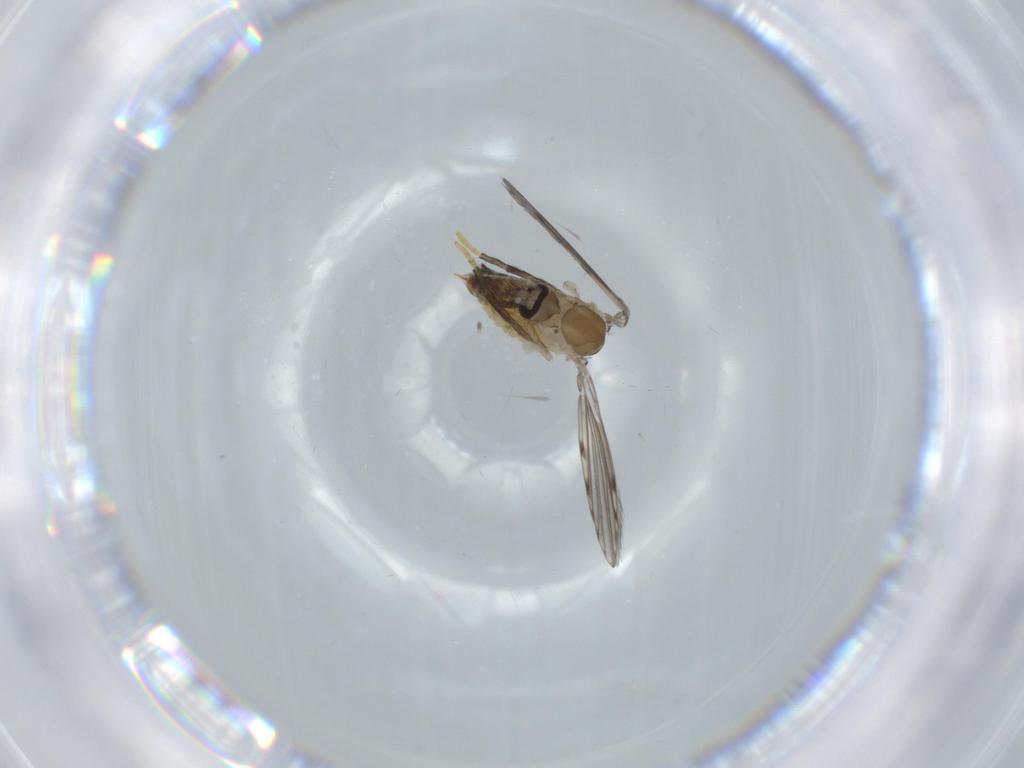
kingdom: Animalia
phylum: Arthropoda
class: Insecta
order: Diptera
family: Psychodidae
